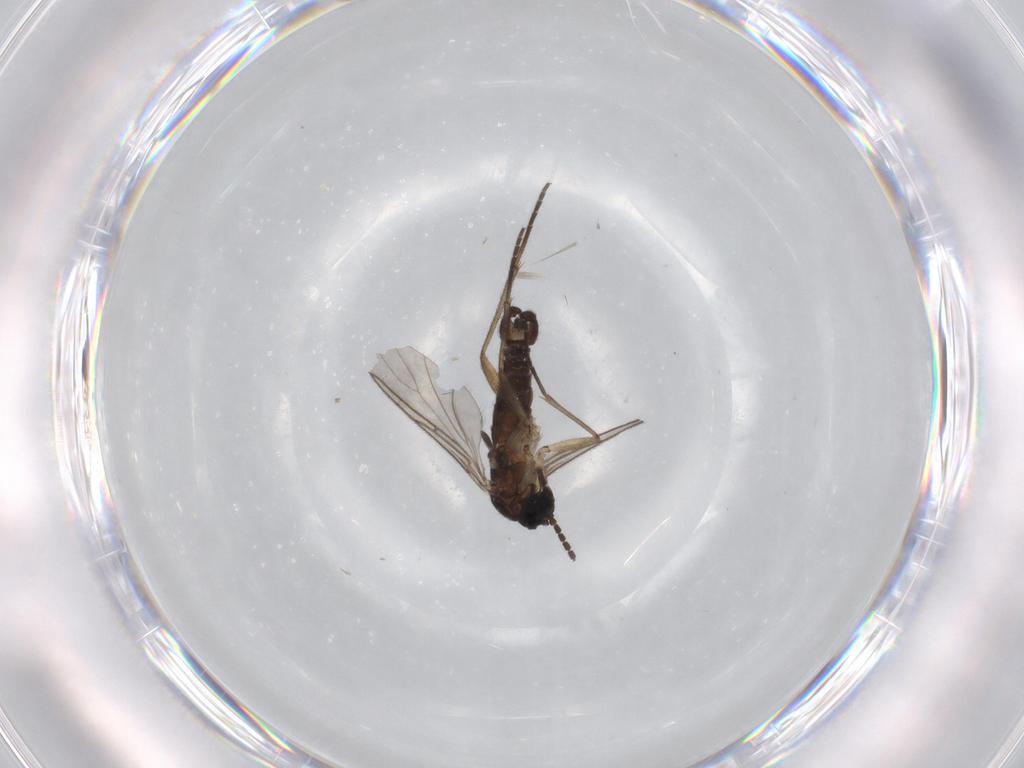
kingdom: Animalia
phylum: Arthropoda
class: Insecta
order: Diptera
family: Sciaridae
